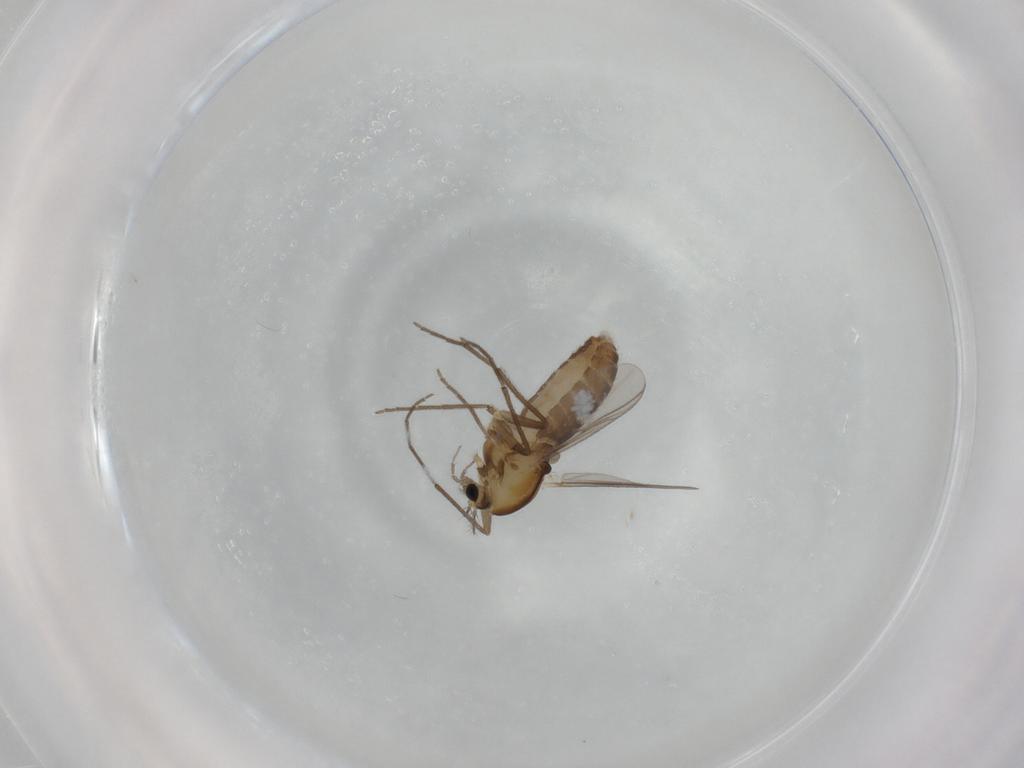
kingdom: Animalia
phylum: Arthropoda
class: Insecta
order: Diptera
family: Chironomidae
